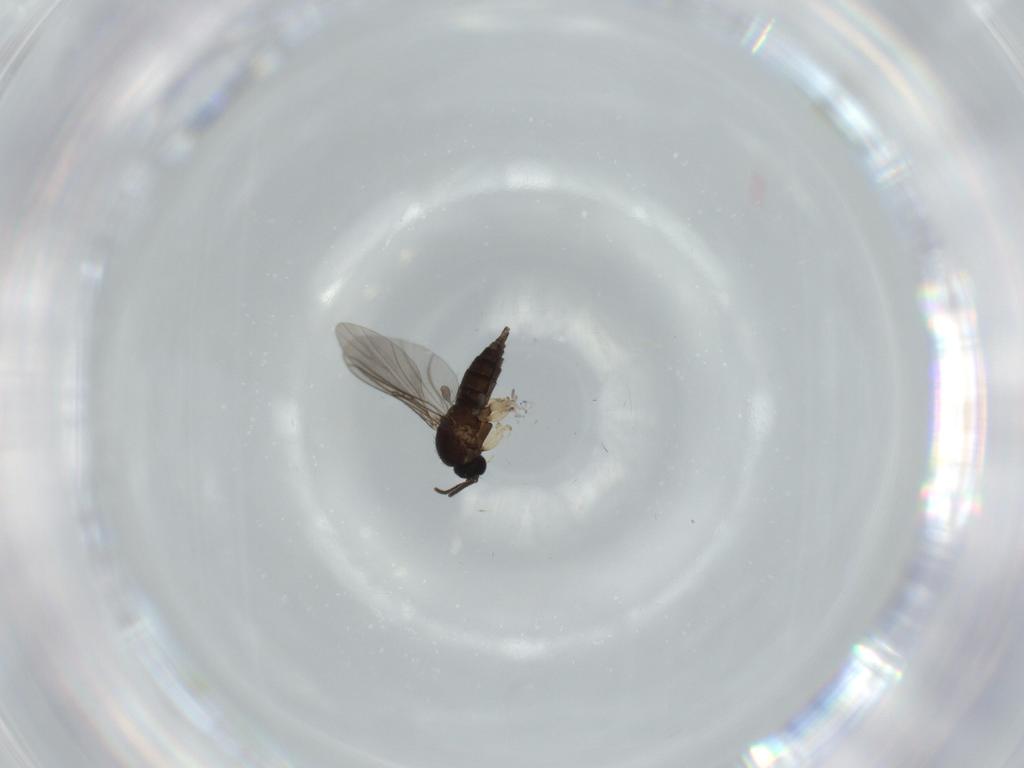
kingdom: Animalia
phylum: Arthropoda
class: Insecta
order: Diptera
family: Sciaridae
